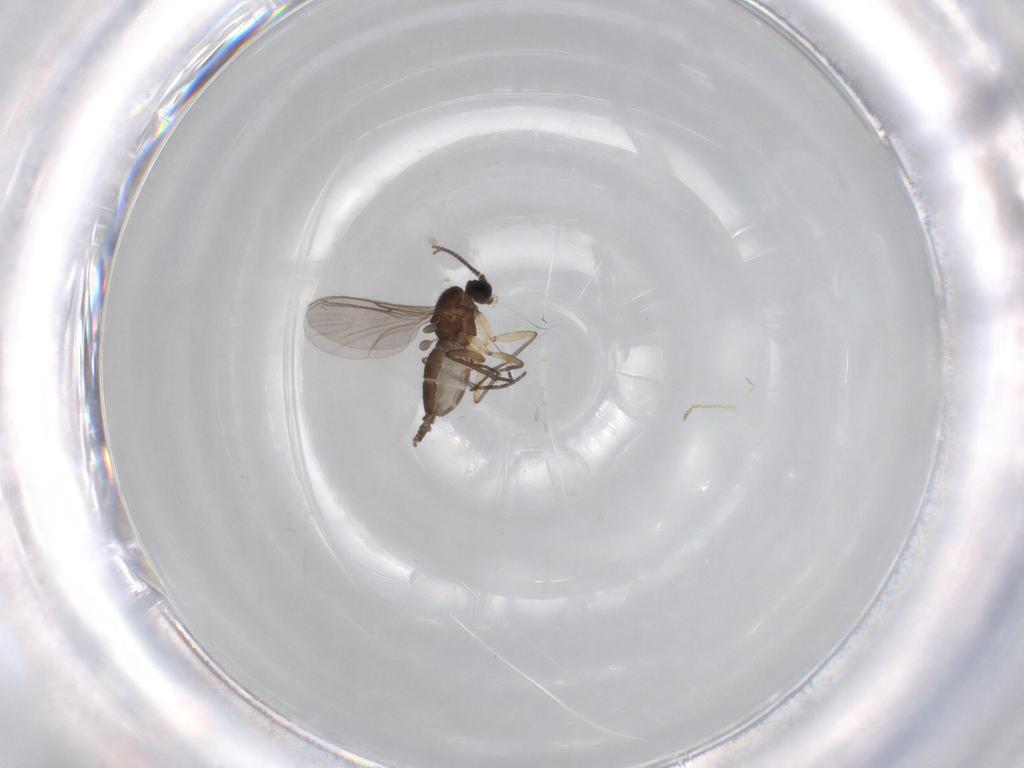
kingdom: Animalia
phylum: Arthropoda
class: Insecta
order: Diptera
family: Sciaridae
